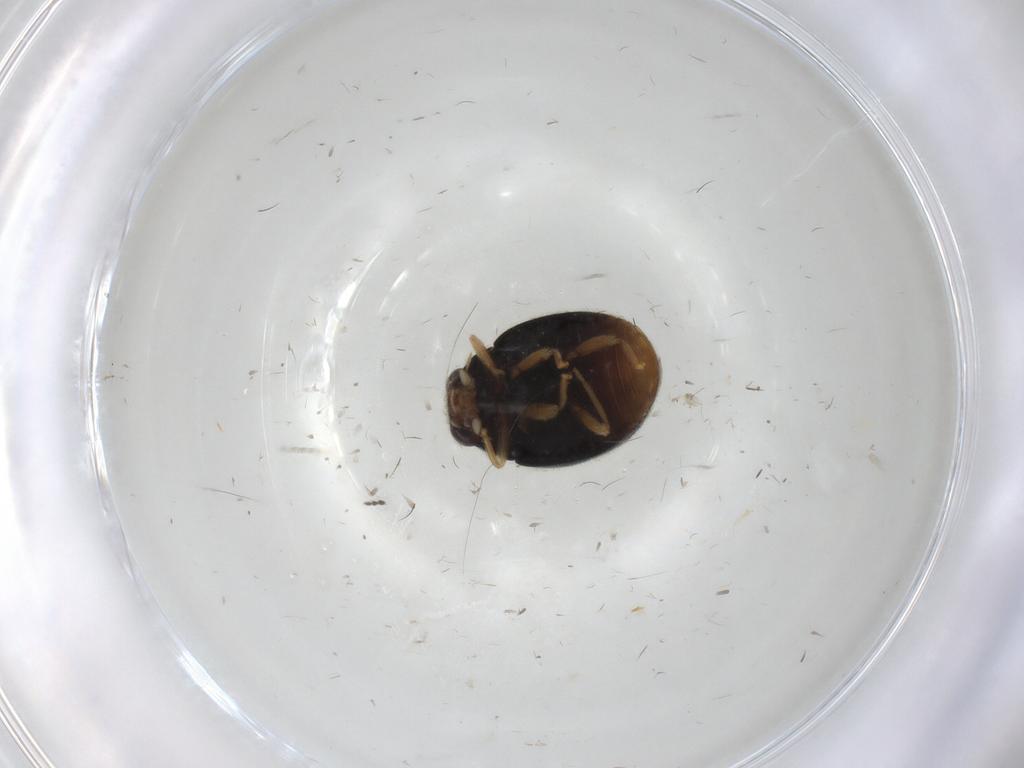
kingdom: Animalia
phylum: Arthropoda
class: Insecta
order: Coleoptera
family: Coccinellidae
